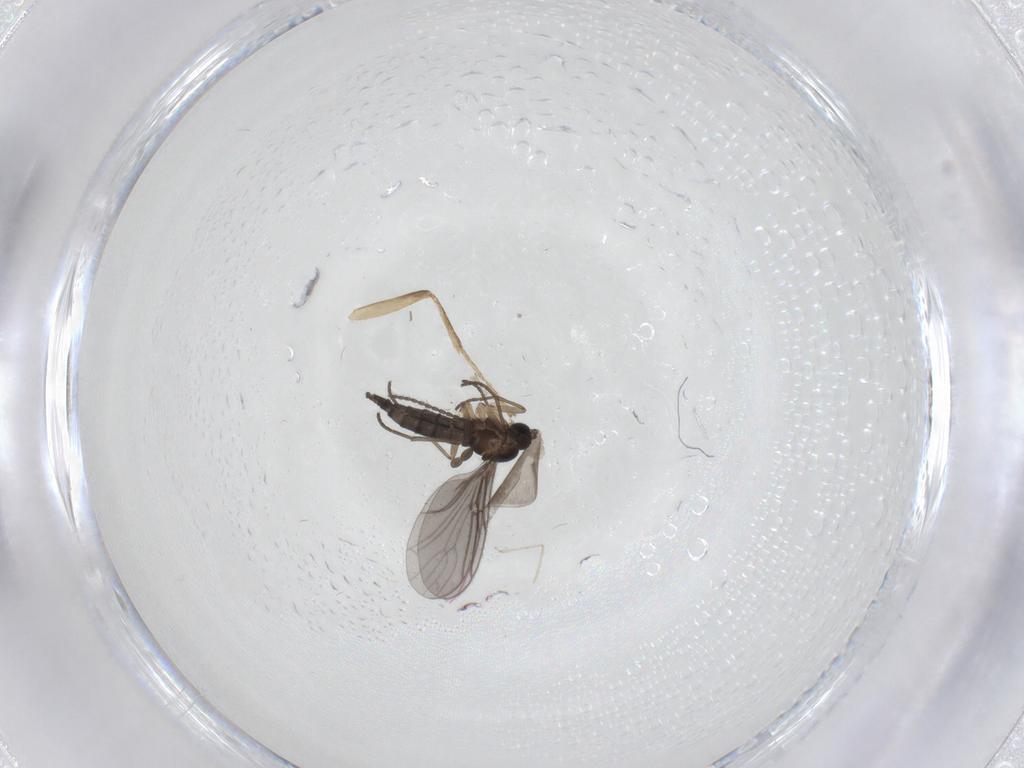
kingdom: Animalia
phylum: Arthropoda
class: Insecta
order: Diptera
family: Sciaridae
